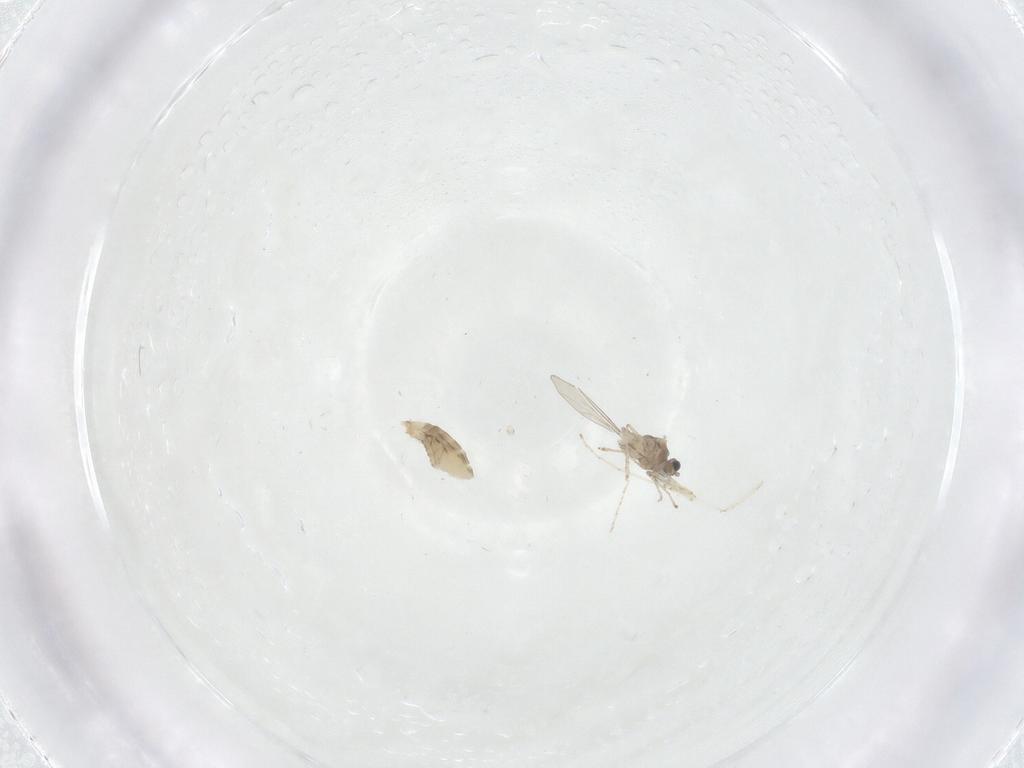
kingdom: Animalia
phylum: Arthropoda
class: Insecta
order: Diptera
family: Cecidomyiidae
